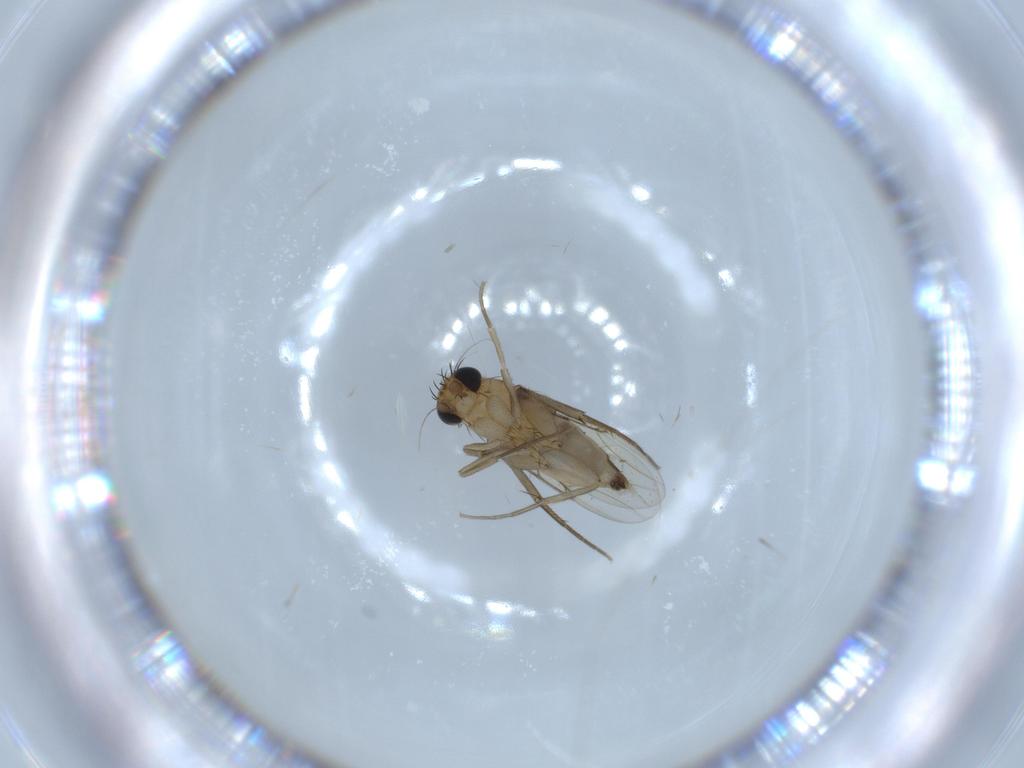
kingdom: Animalia
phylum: Arthropoda
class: Insecta
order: Diptera
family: Phoridae
